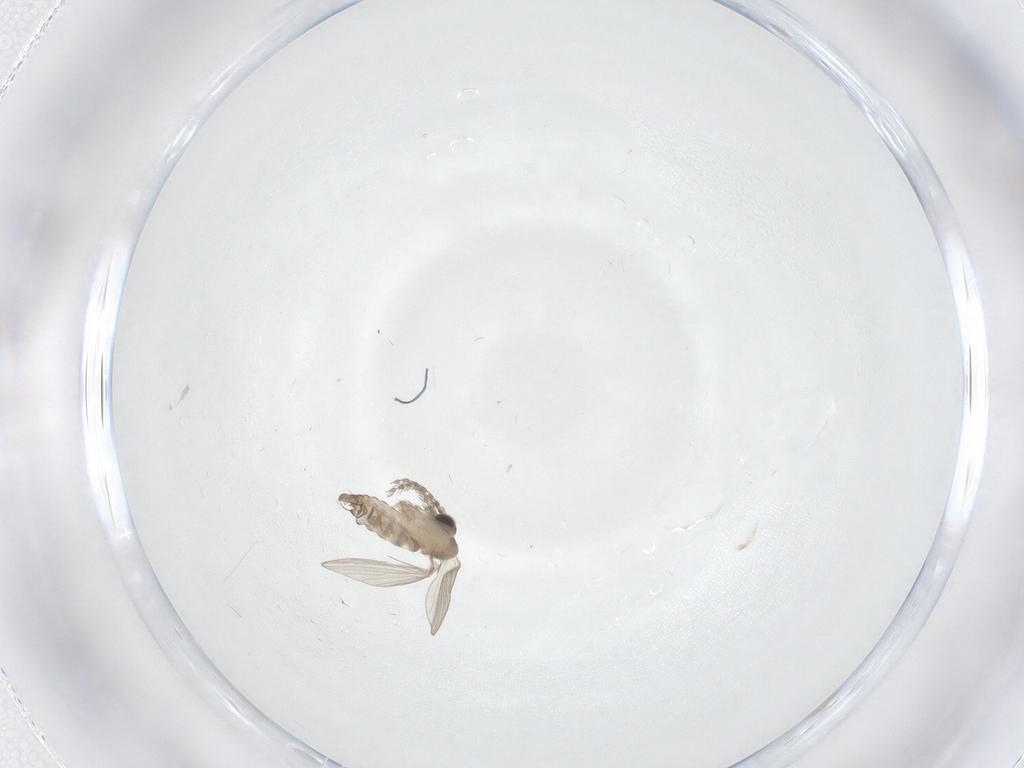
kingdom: Animalia
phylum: Arthropoda
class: Insecta
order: Diptera
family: Psychodidae
